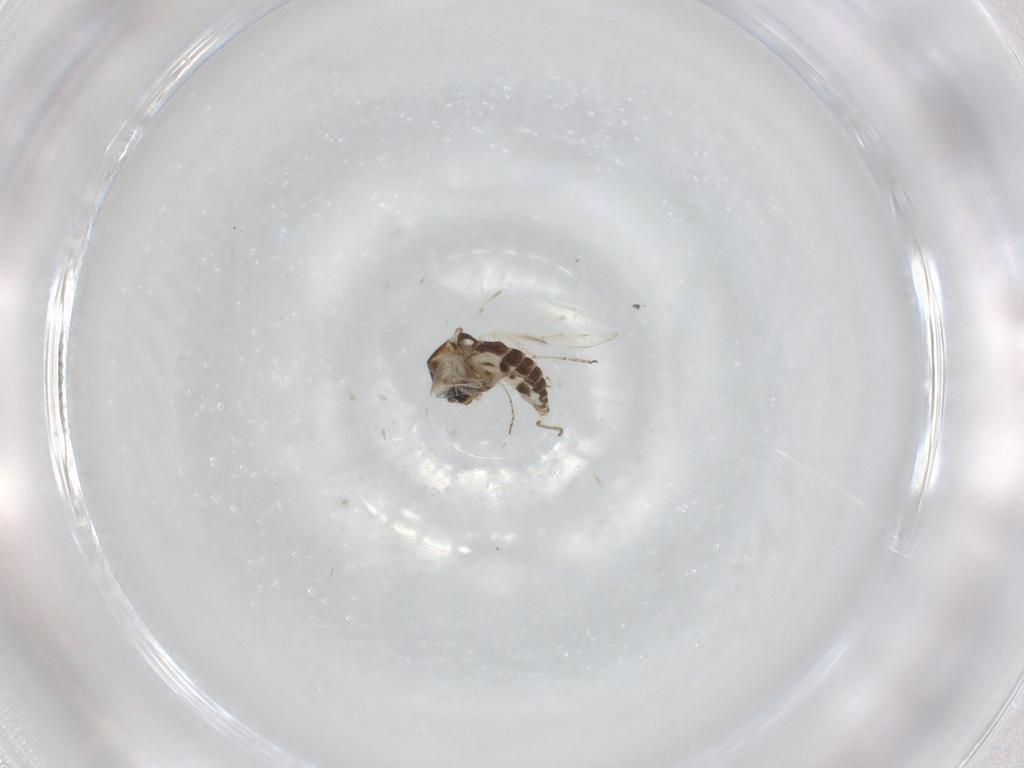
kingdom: Animalia
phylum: Arthropoda
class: Insecta
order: Diptera
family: Ceratopogonidae
